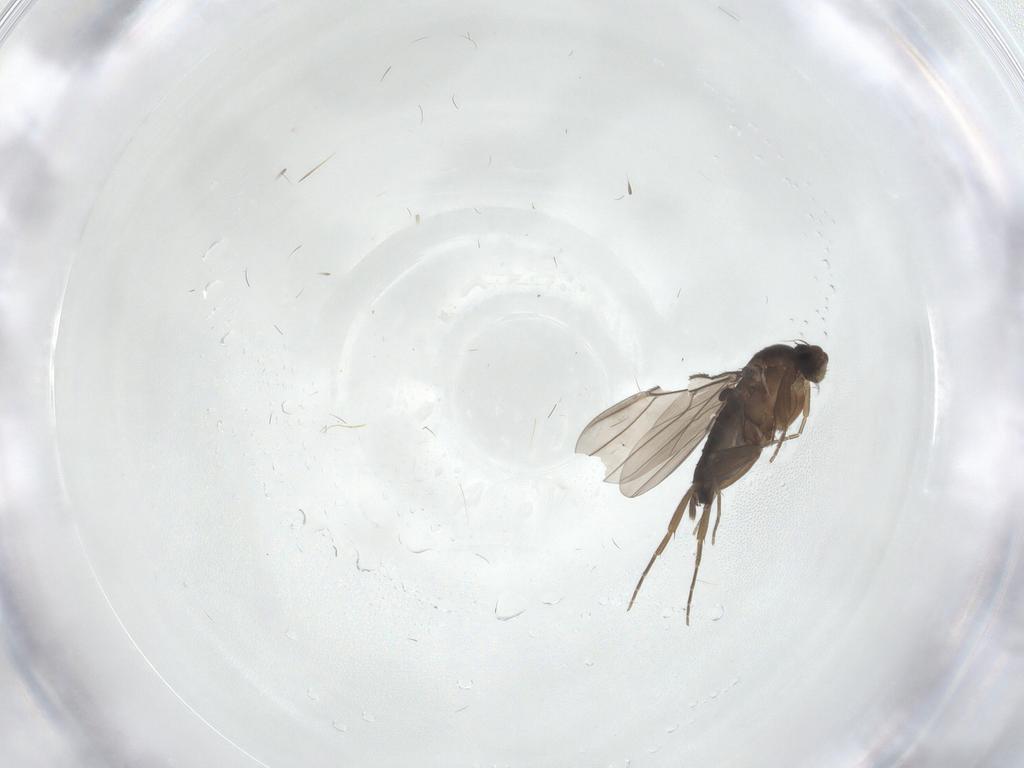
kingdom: Animalia
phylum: Arthropoda
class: Insecta
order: Diptera
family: Phoridae
